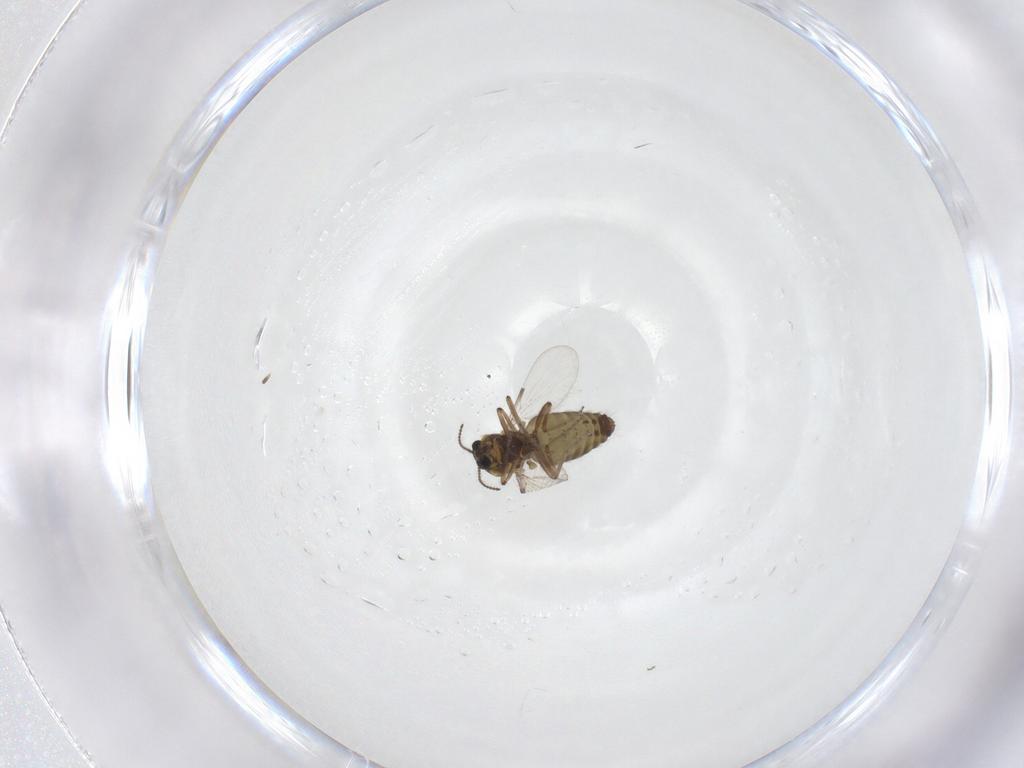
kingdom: Animalia
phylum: Arthropoda
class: Insecta
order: Diptera
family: Ceratopogonidae
